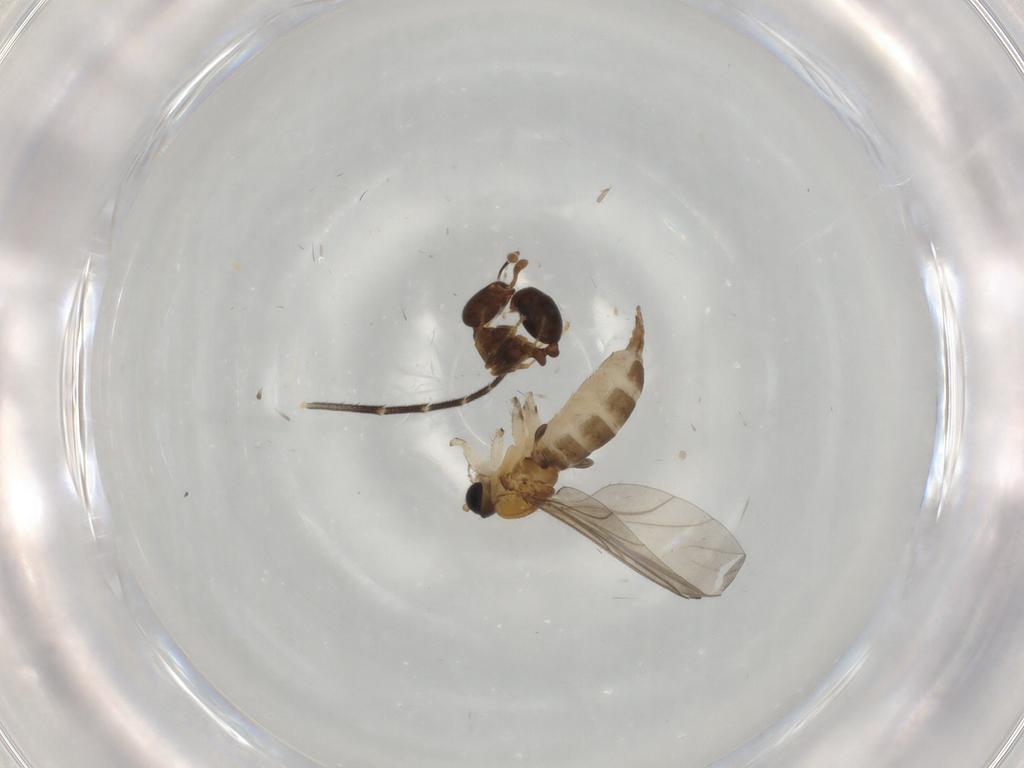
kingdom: Animalia
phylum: Arthropoda
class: Insecta
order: Diptera
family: Sciaridae
